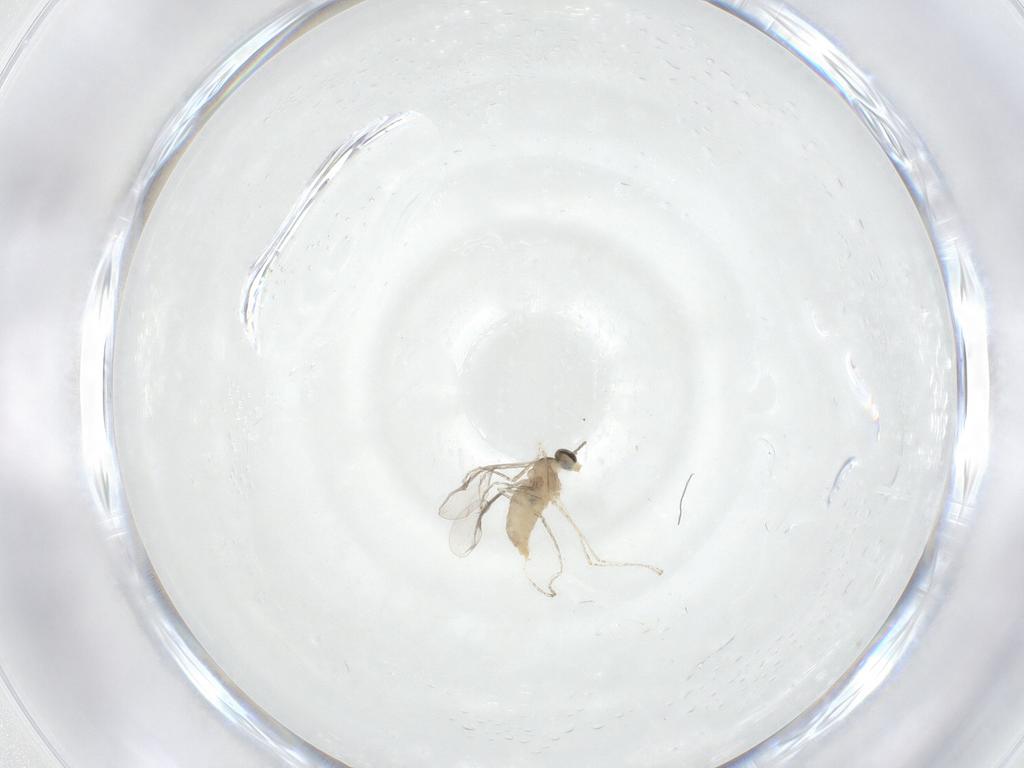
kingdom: Animalia
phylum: Arthropoda
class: Insecta
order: Diptera
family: Cecidomyiidae
